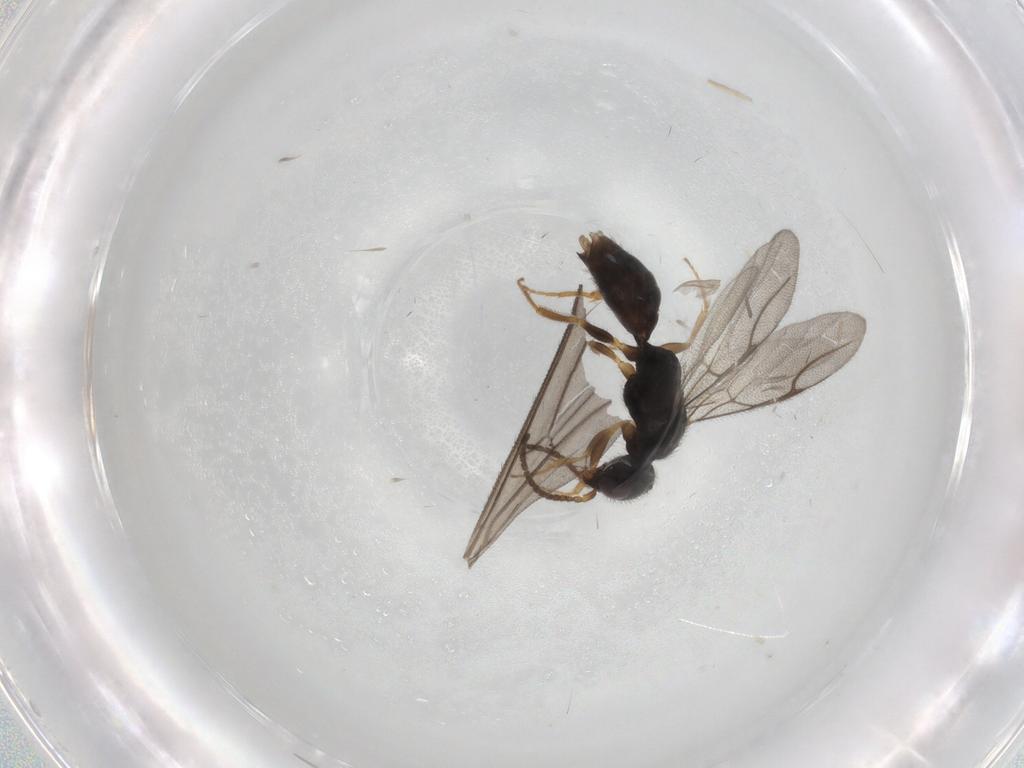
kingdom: Animalia
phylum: Arthropoda
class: Insecta
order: Hymenoptera
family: Bethylidae
